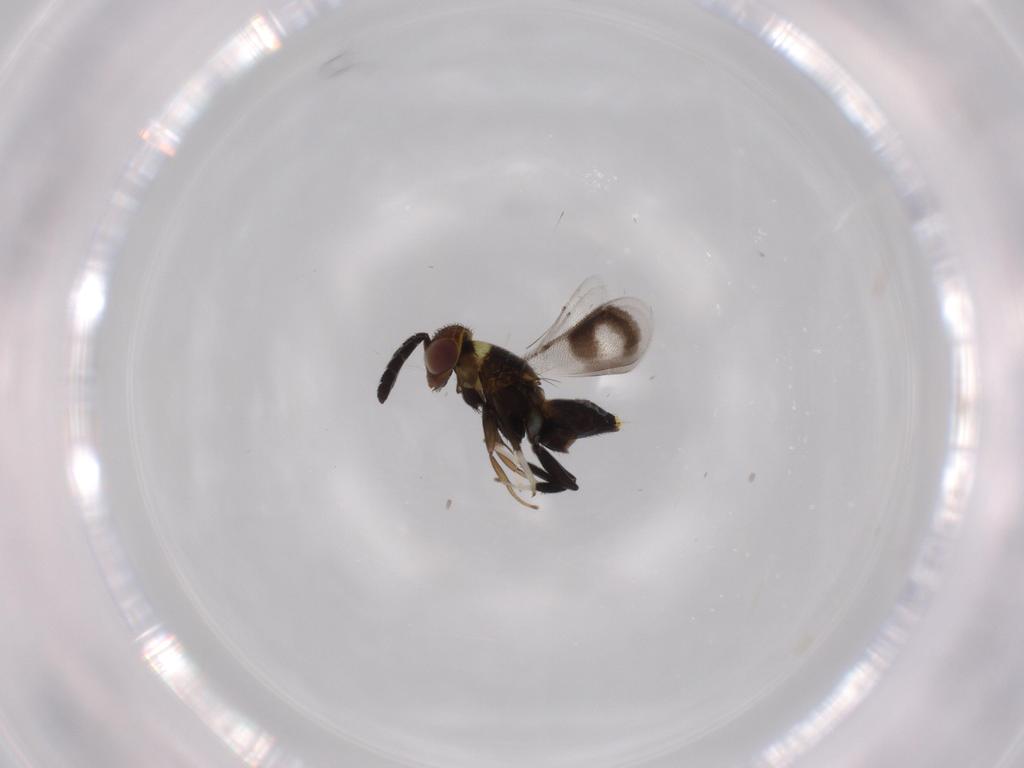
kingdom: Animalia
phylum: Arthropoda
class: Insecta
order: Hymenoptera
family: Aphelinidae
